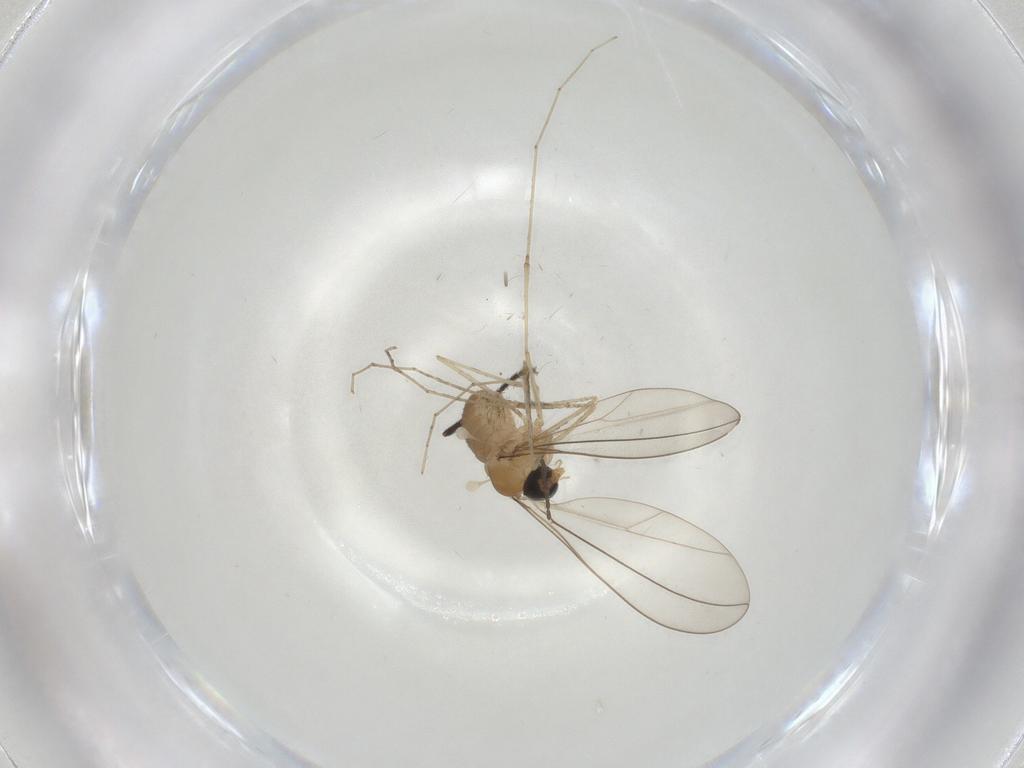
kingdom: Animalia
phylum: Arthropoda
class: Insecta
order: Diptera
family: Cecidomyiidae
